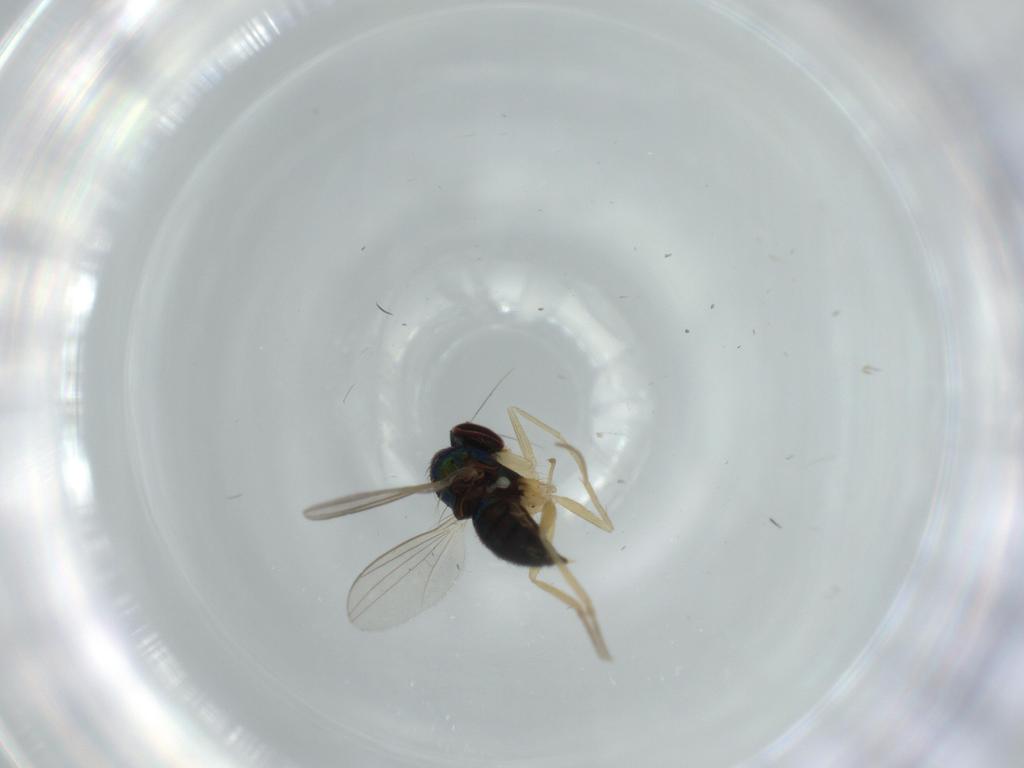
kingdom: Animalia
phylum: Arthropoda
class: Insecta
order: Diptera
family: Dolichopodidae
